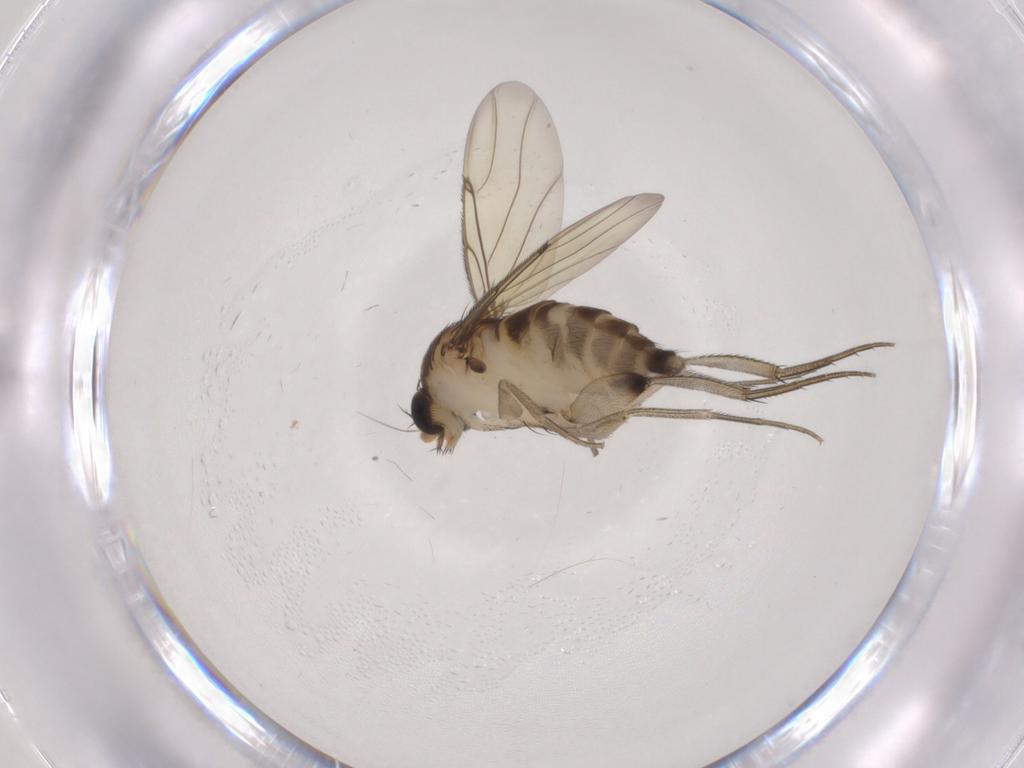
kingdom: Animalia
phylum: Arthropoda
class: Insecta
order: Diptera
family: Phoridae
